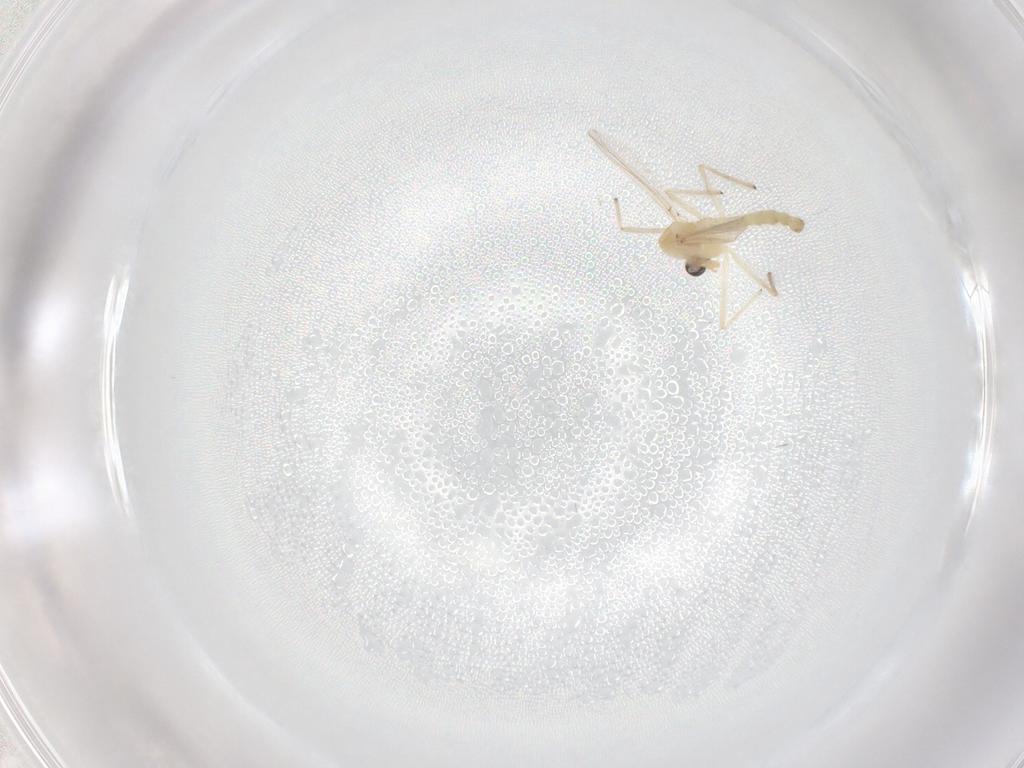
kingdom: Animalia
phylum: Arthropoda
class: Insecta
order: Diptera
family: Chironomidae
